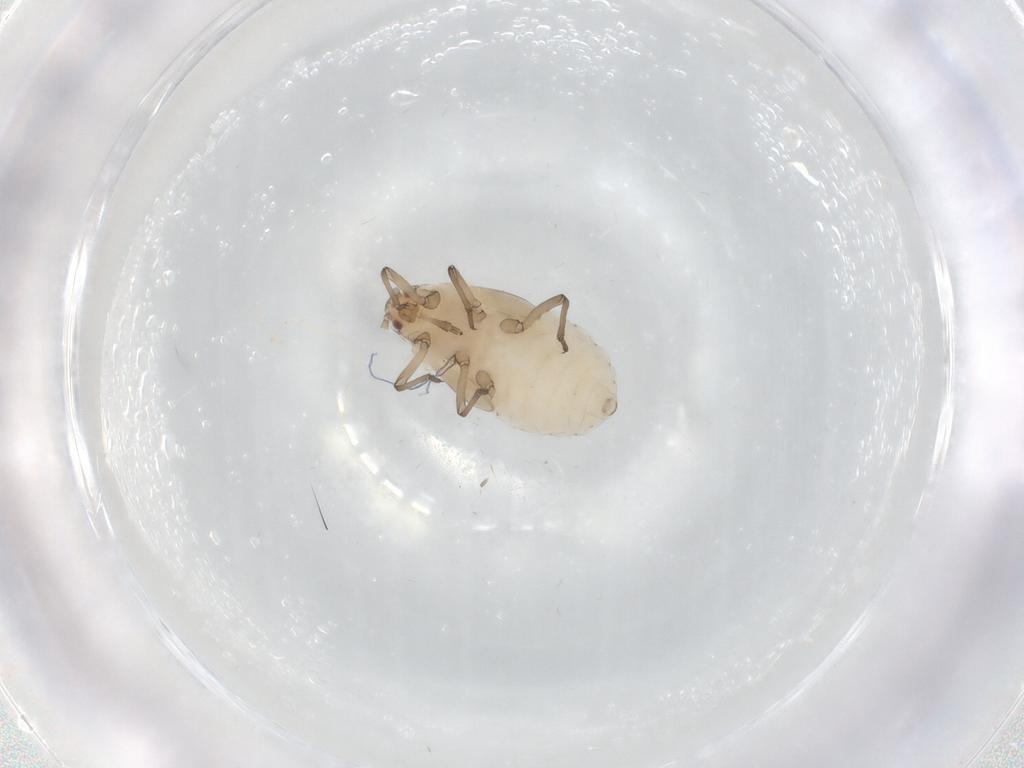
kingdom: Animalia
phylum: Arthropoda
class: Insecta
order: Hemiptera
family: Aphididae
